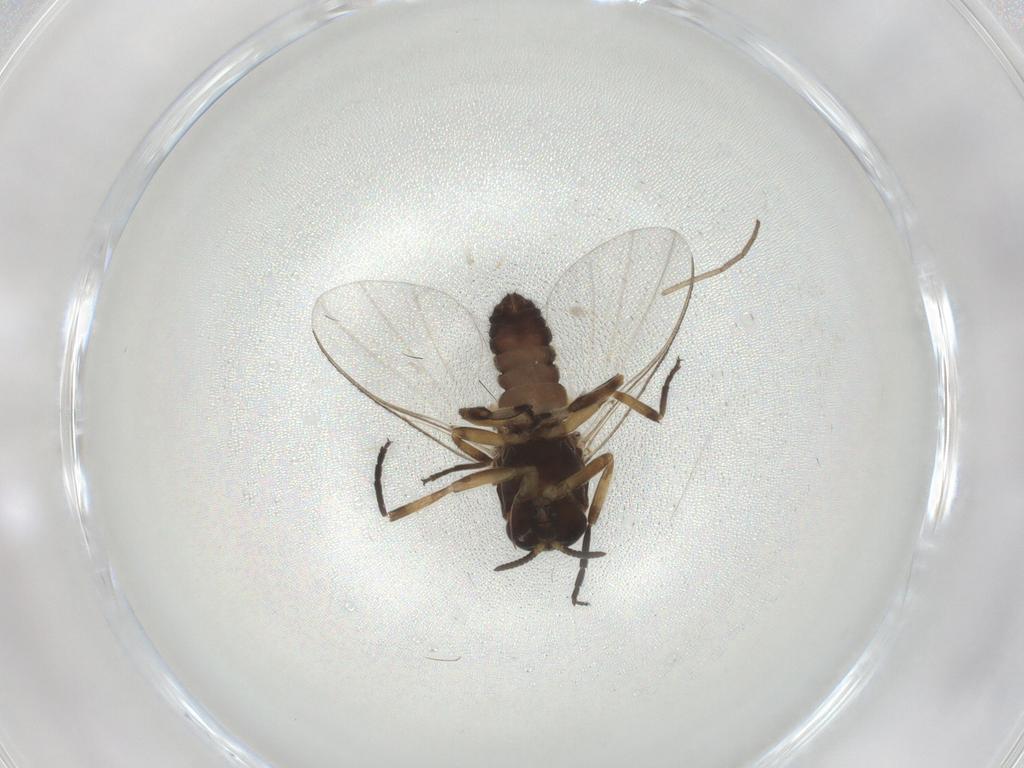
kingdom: Animalia
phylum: Arthropoda
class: Insecta
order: Diptera
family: Simuliidae
